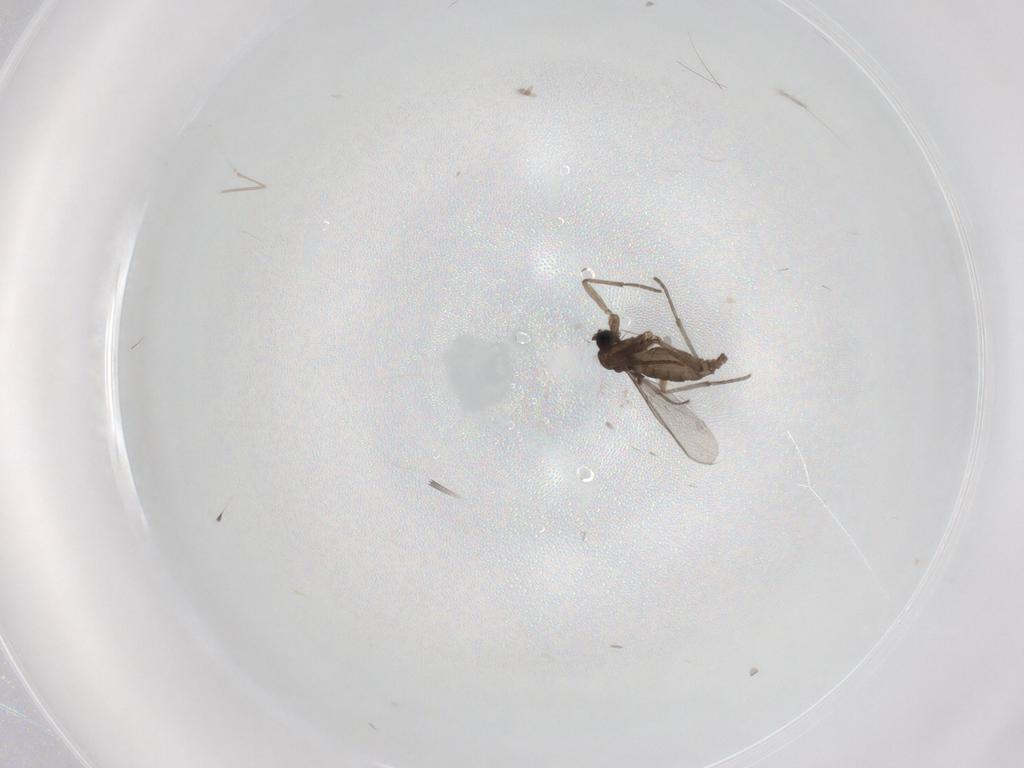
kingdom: Animalia
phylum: Arthropoda
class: Insecta
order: Diptera
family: Sciaridae
